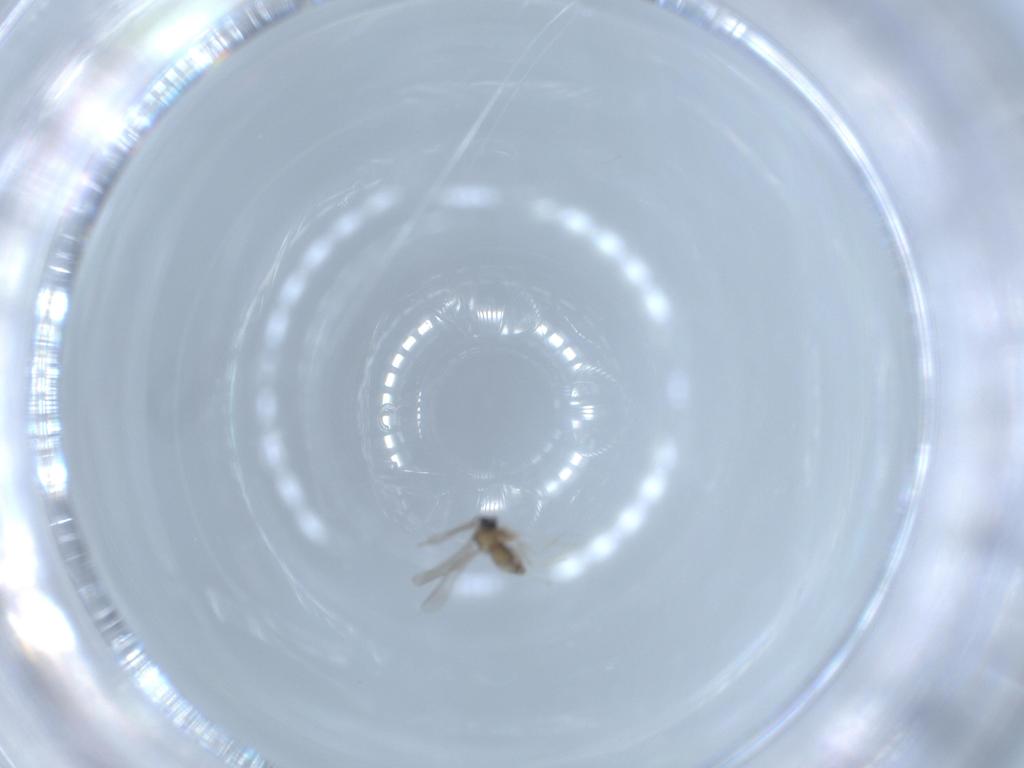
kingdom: Animalia
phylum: Arthropoda
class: Insecta
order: Diptera
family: Cecidomyiidae
